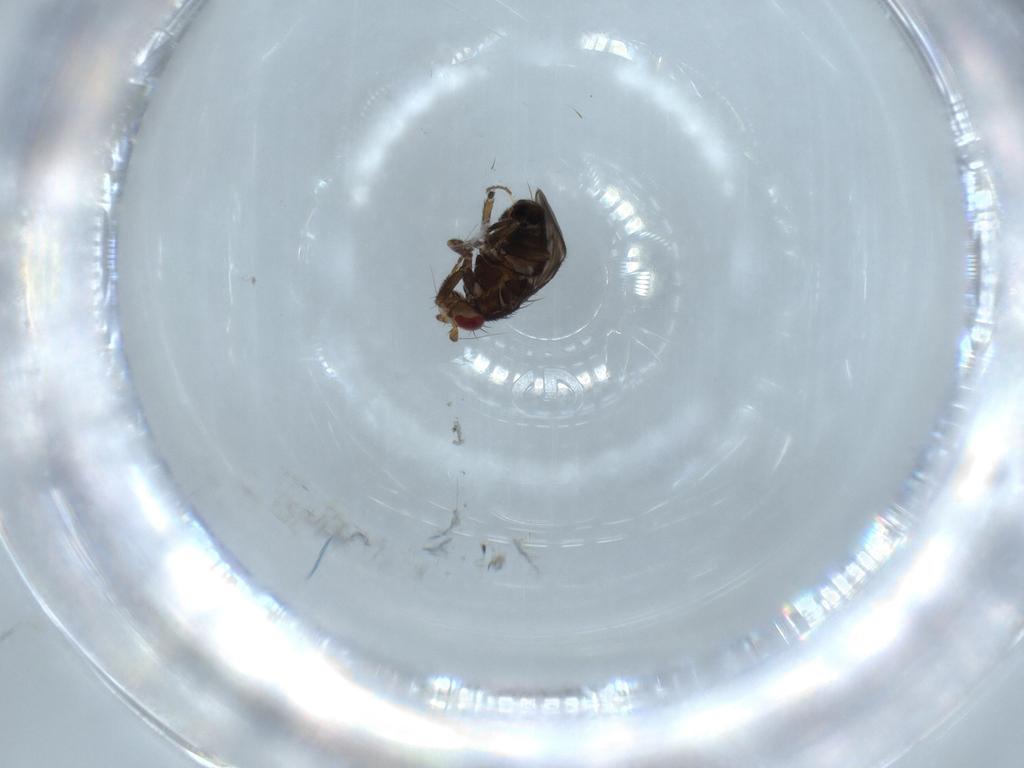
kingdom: Animalia
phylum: Arthropoda
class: Insecta
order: Diptera
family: Sphaeroceridae
